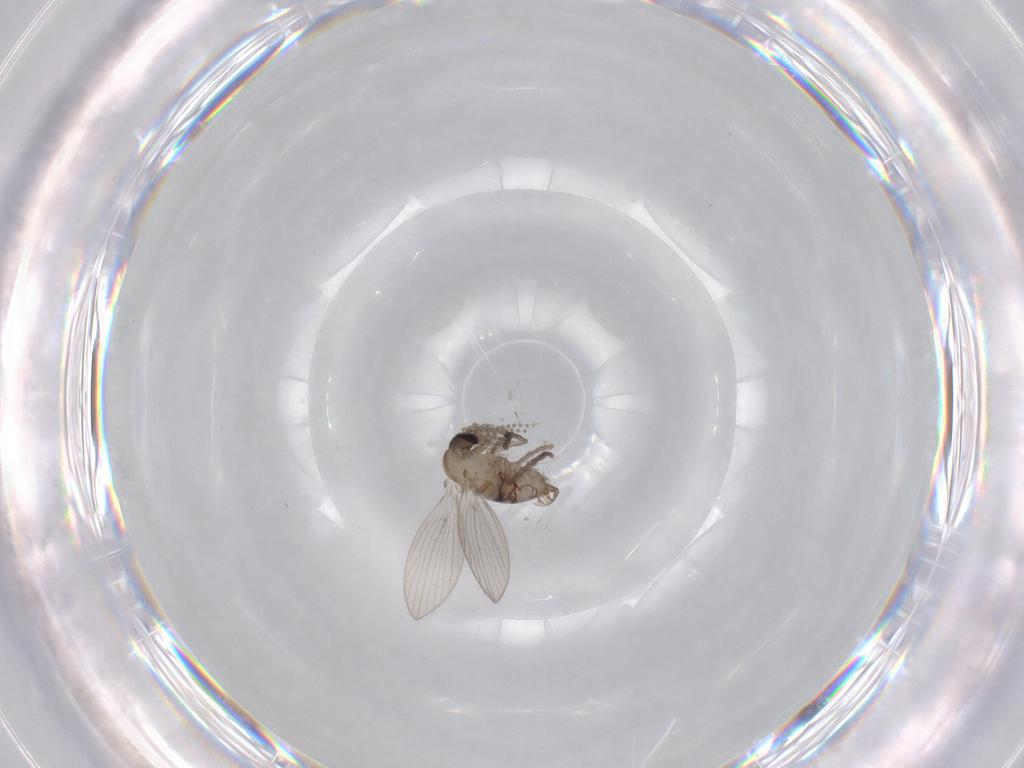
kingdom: Animalia
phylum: Arthropoda
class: Insecta
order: Diptera
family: Psychodidae
